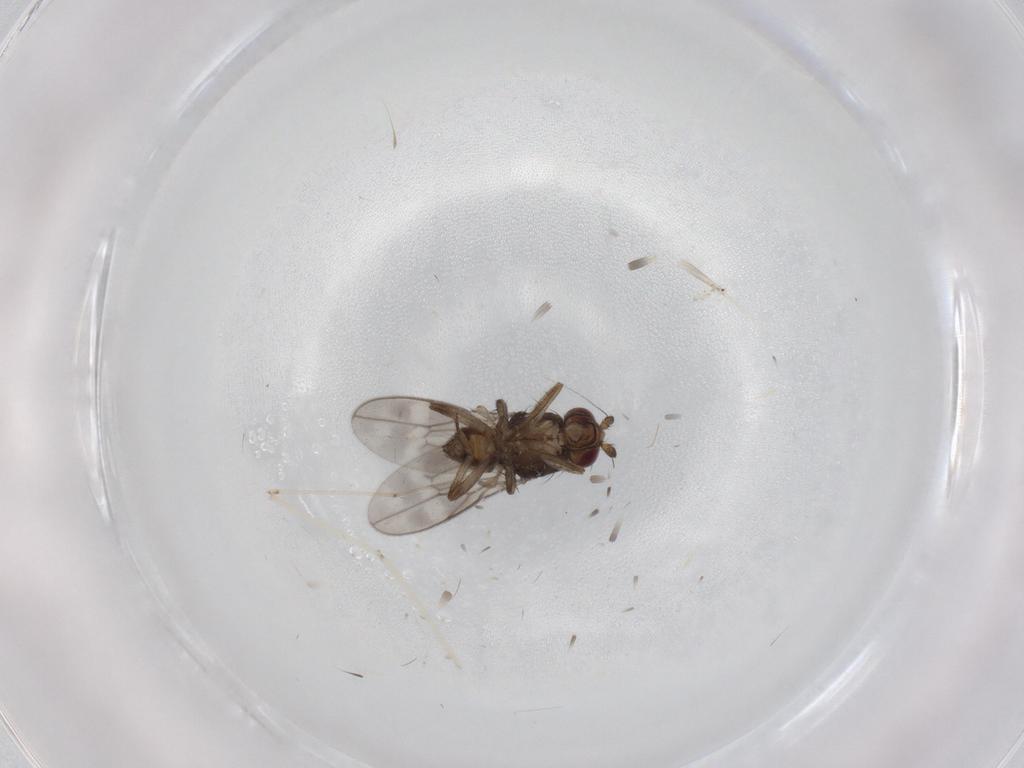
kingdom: Animalia
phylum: Arthropoda
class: Insecta
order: Diptera
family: Sphaeroceridae
